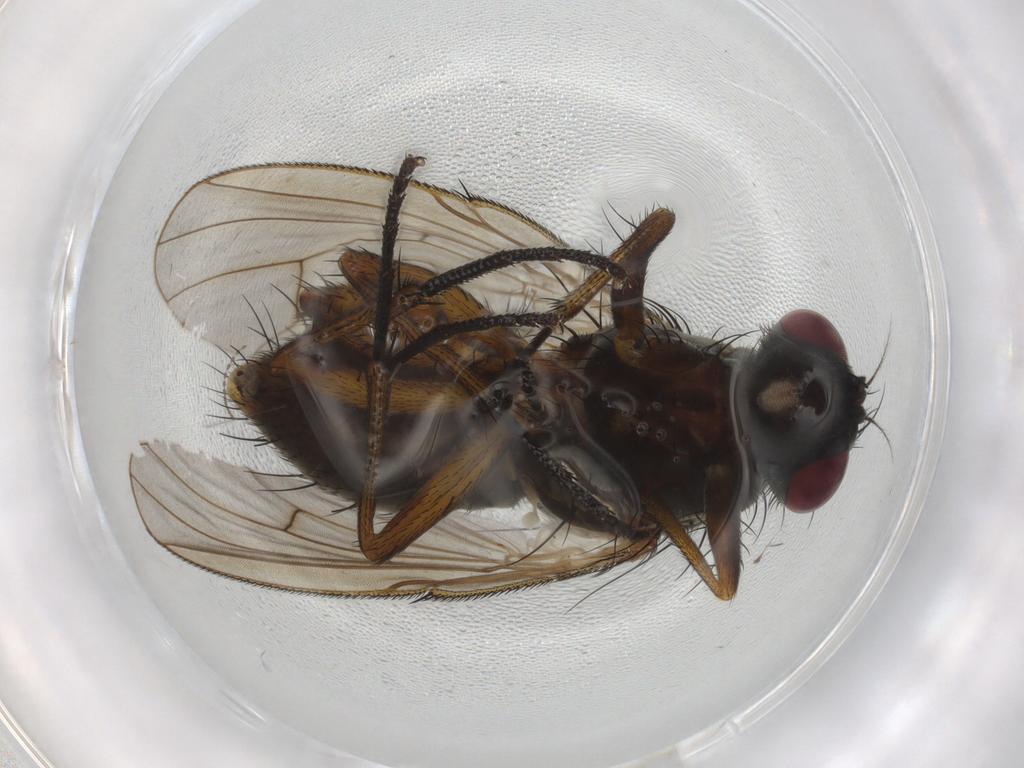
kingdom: Animalia
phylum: Arthropoda
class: Insecta
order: Diptera
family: Muscidae
